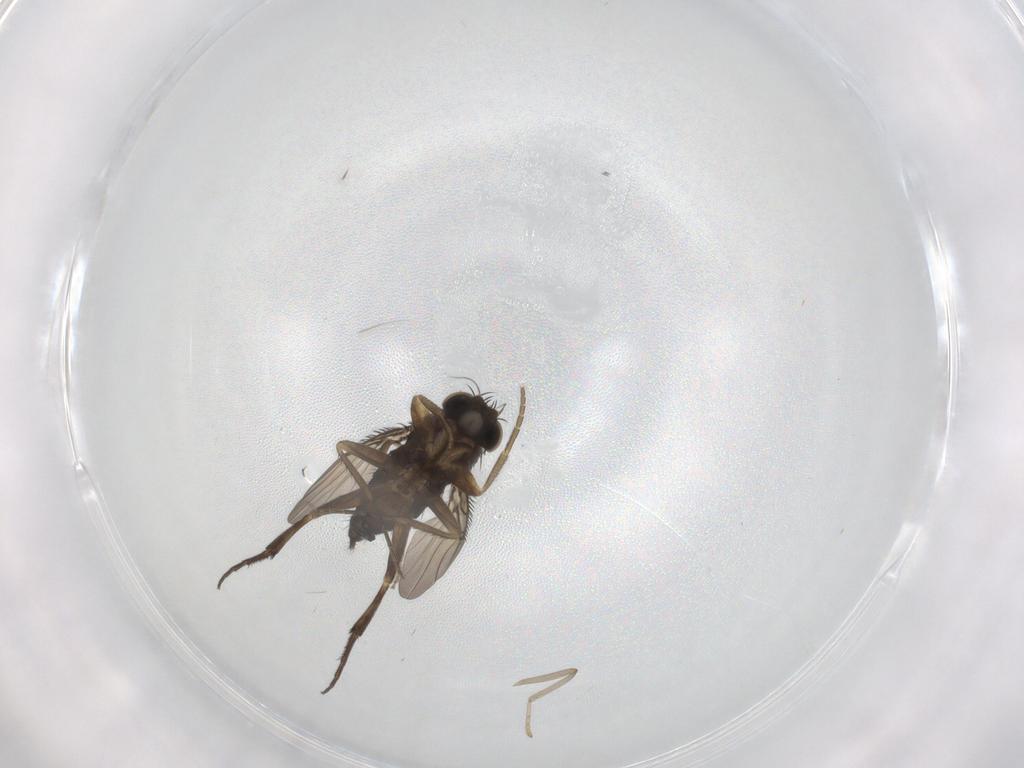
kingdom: Animalia
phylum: Arthropoda
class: Insecta
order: Diptera
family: Phoridae
